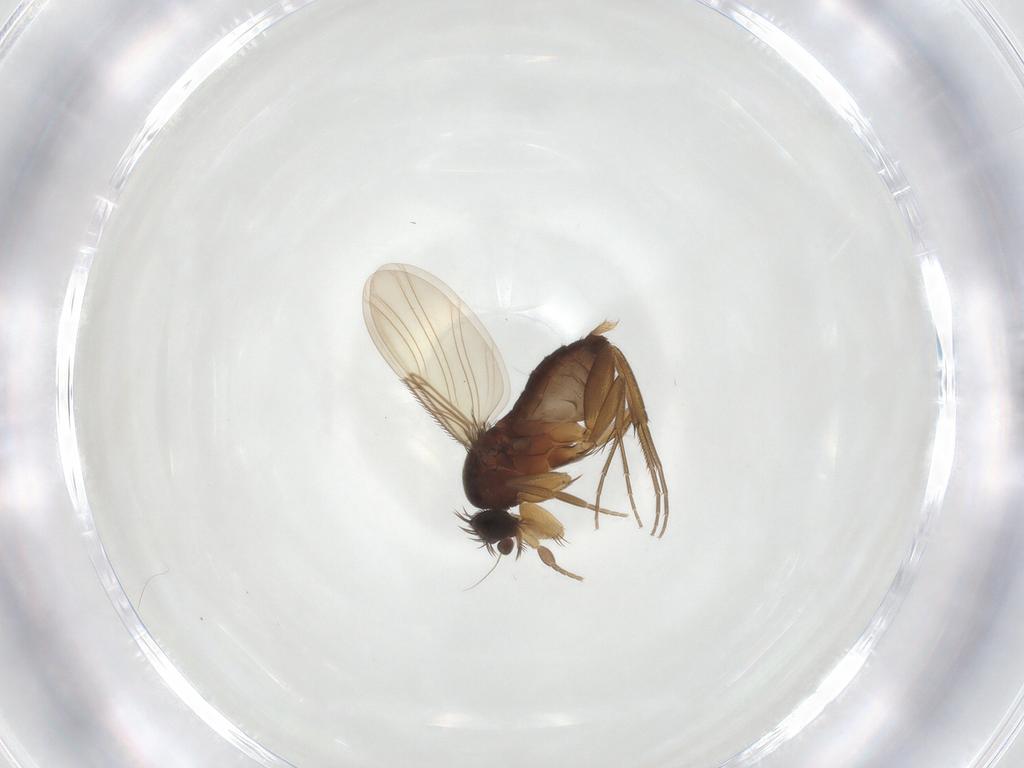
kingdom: Animalia
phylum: Arthropoda
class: Insecta
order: Diptera
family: Phoridae
